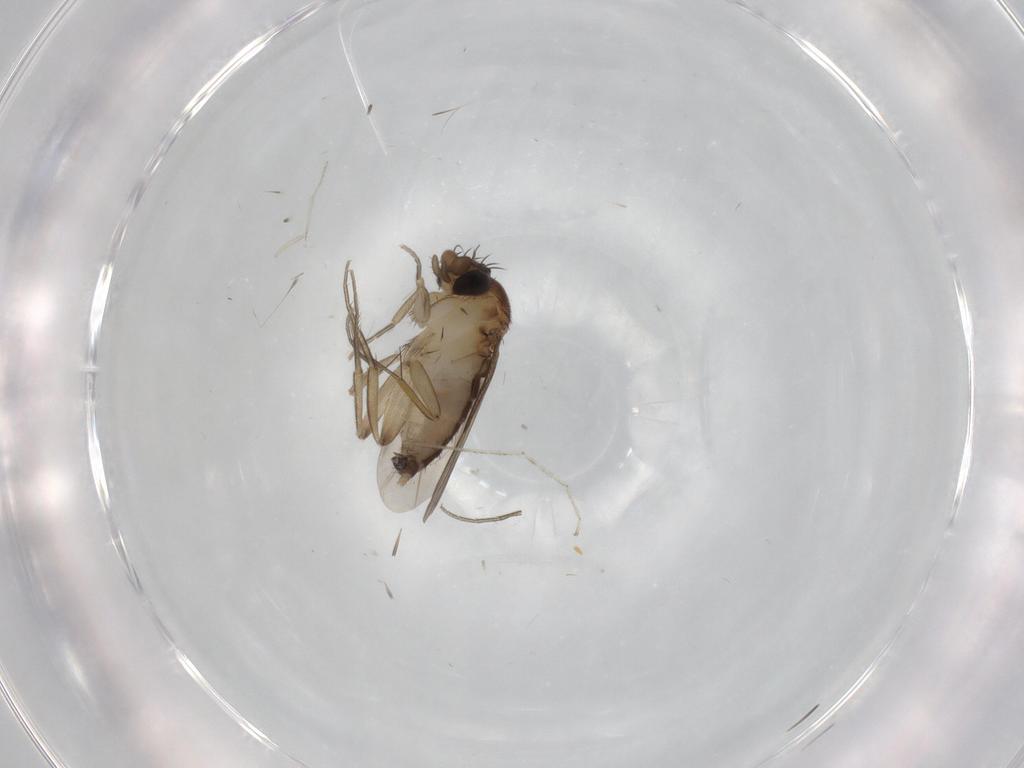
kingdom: Animalia
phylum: Arthropoda
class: Insecta
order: Diptera
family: Phoridae
